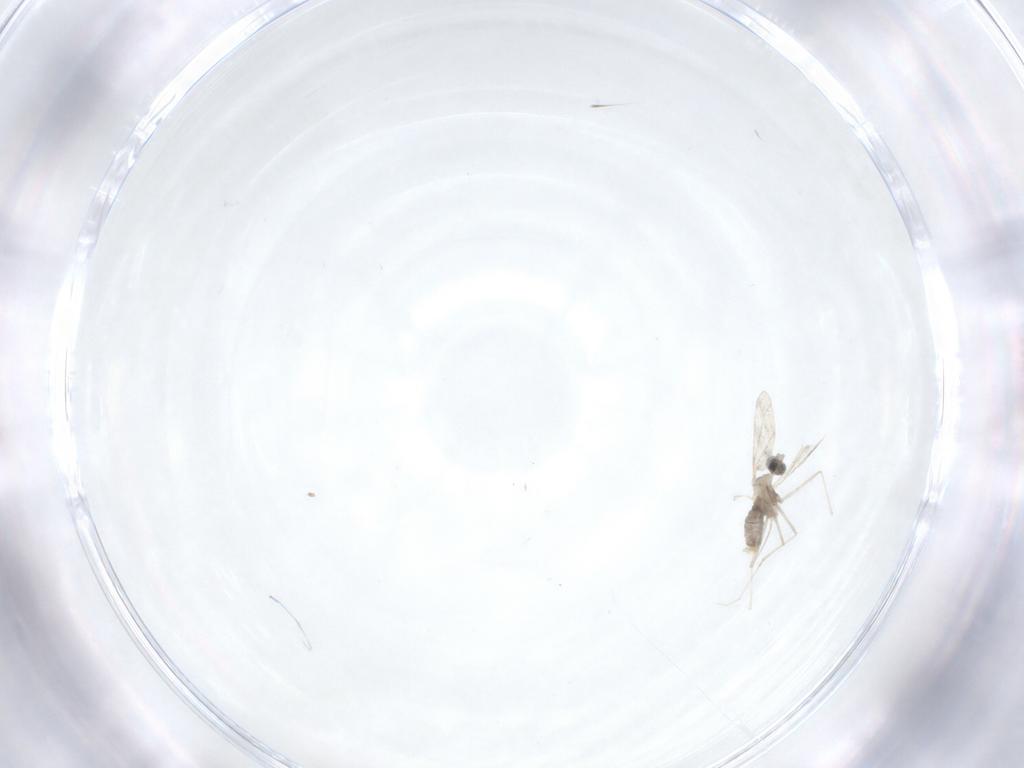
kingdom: Animalia
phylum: Arthropoda
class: Insecta
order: Diptera
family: Cecidomyiidae
